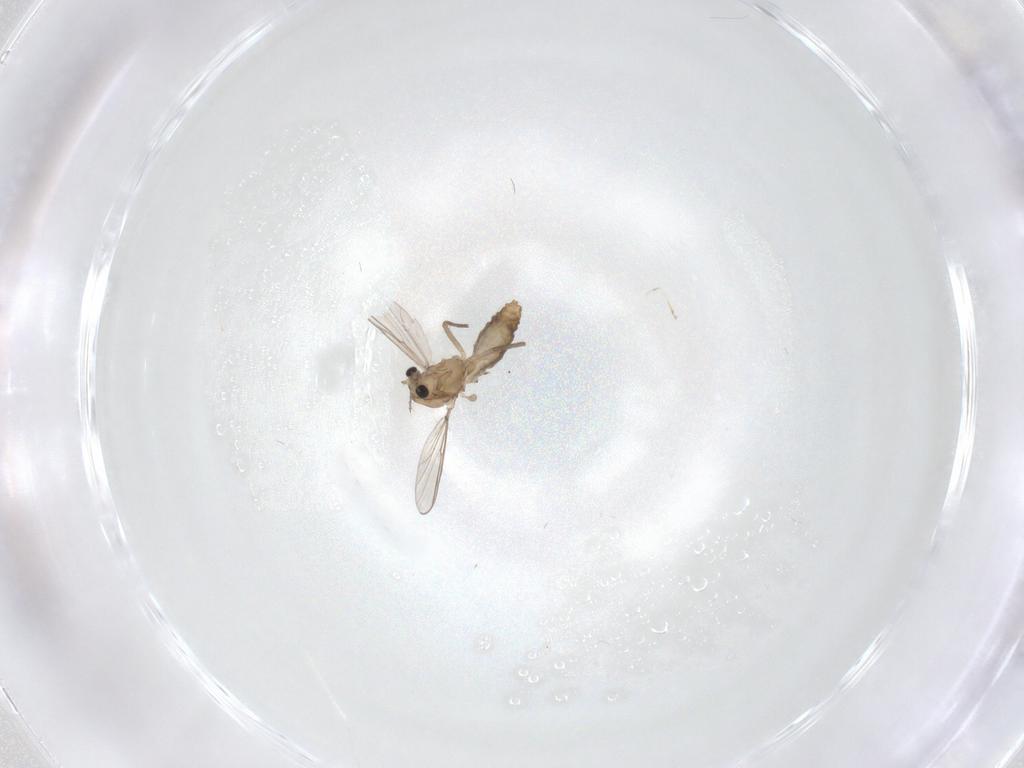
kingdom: Animalia
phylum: Arthropoda
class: Insecta
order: Diptera
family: Chironomidae
